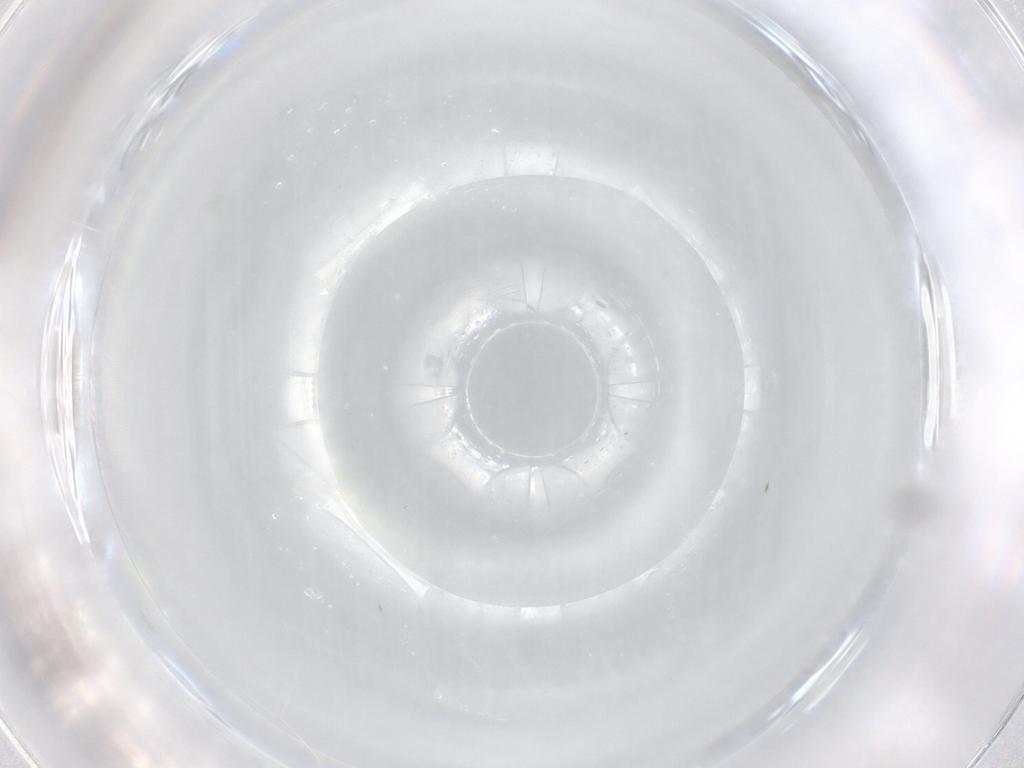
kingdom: Animalia
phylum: Arthropoda
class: Insecta
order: Diptera
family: Cecidomyiidae
